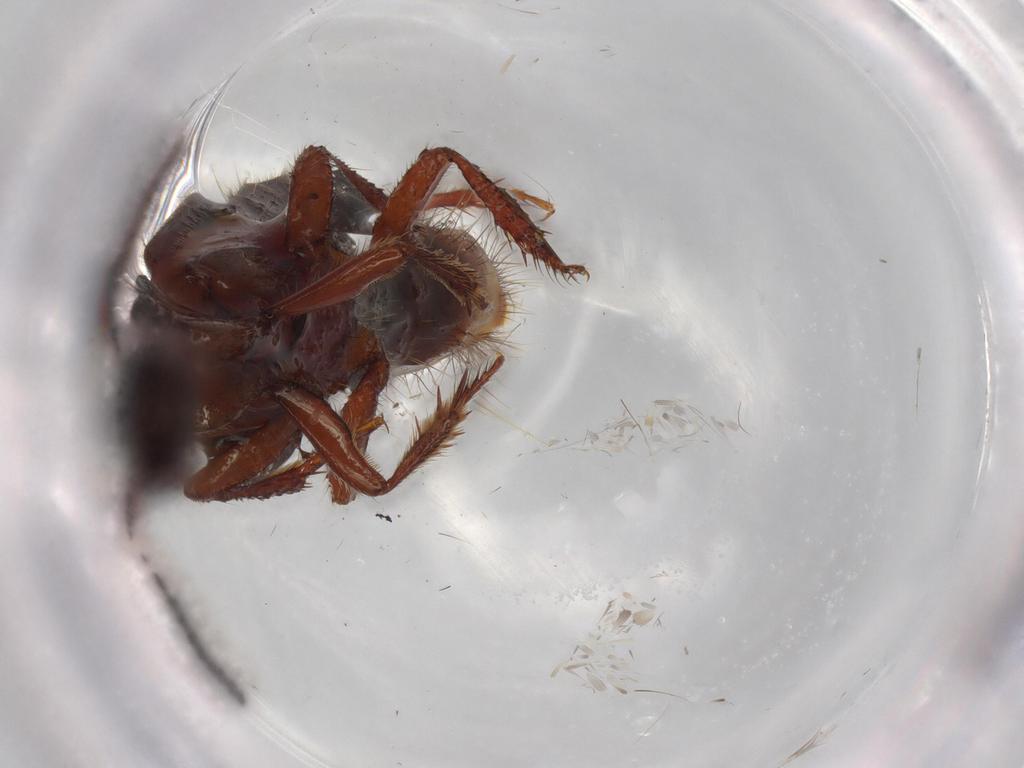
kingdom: Animalia
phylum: Arthropoda
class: Insecta
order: Coleoptera
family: Staphylinidae
